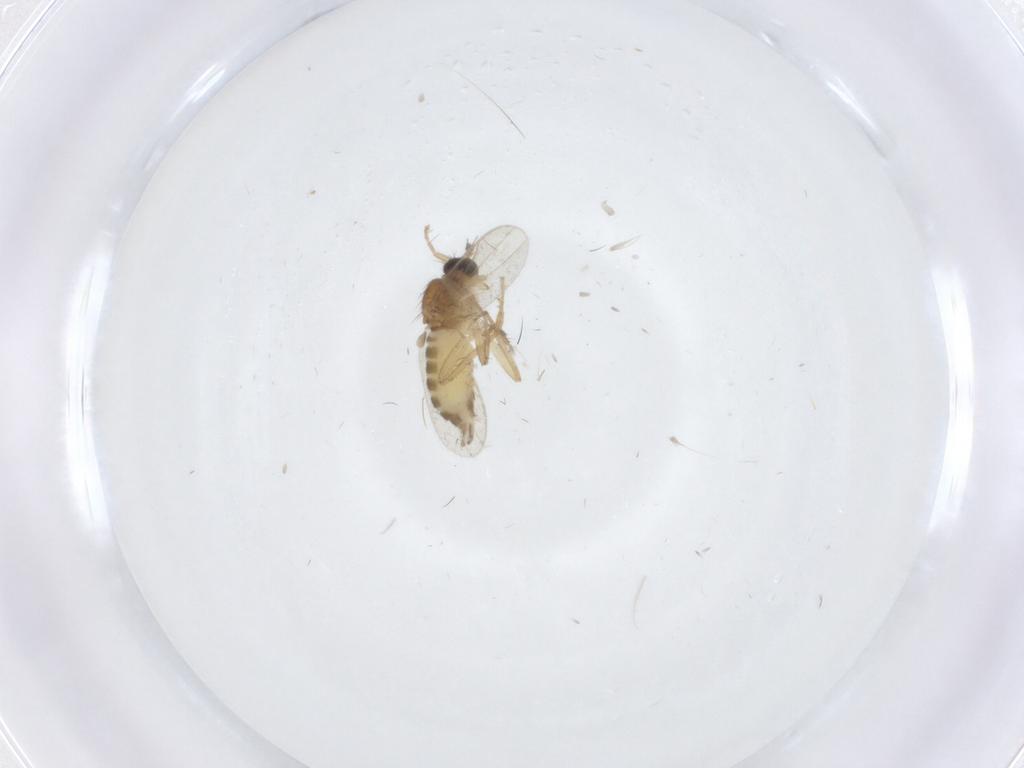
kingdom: Animalia
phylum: Arthropoda
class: Insecta
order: Diptera
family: Hybotidae
